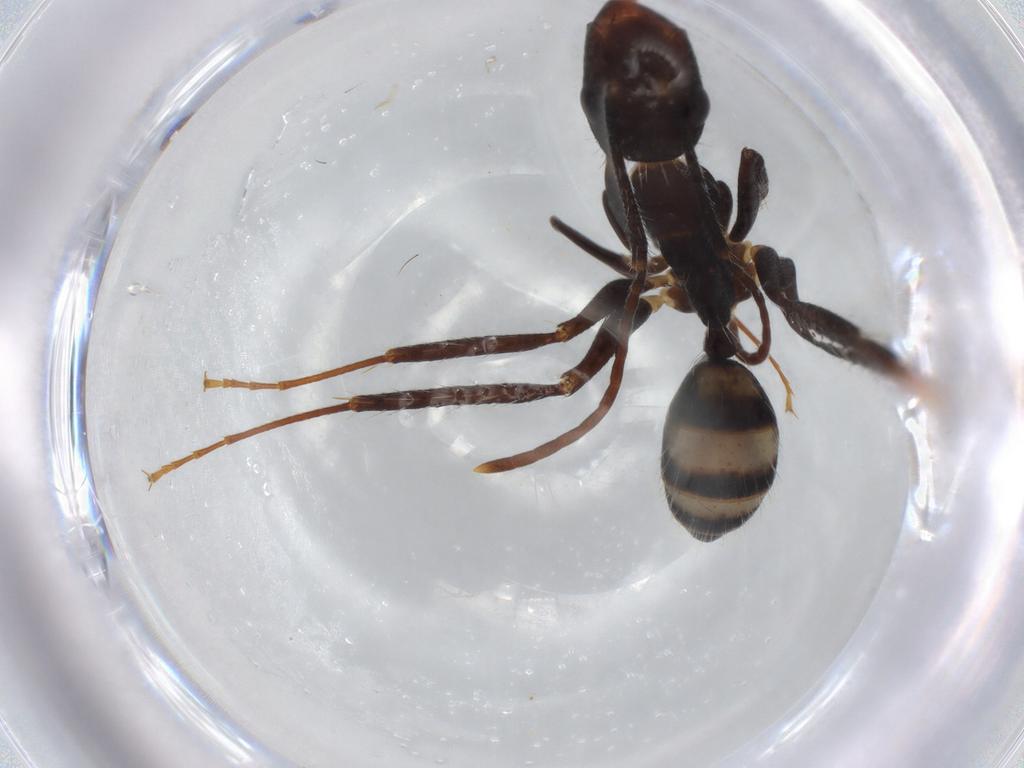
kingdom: Animalia
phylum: Arthropoda
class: Insecta
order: Hymenoptera
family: Formicidae
